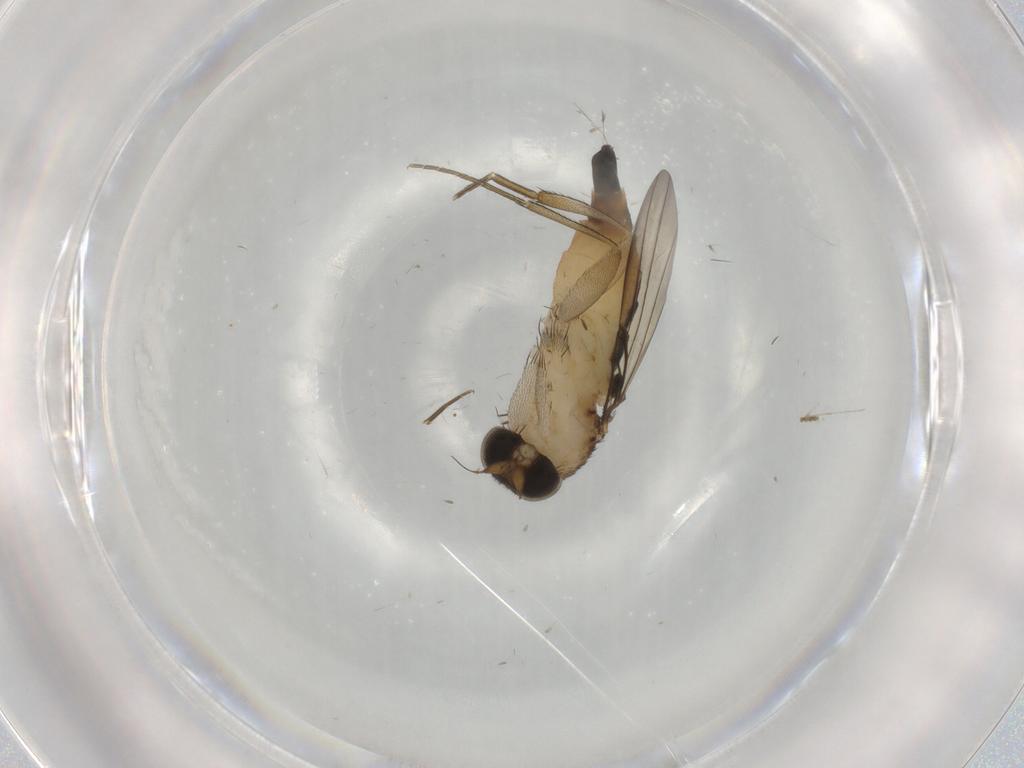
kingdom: Animalia
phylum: Arthropoda
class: Insecta
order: Diptera
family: Phoridae
